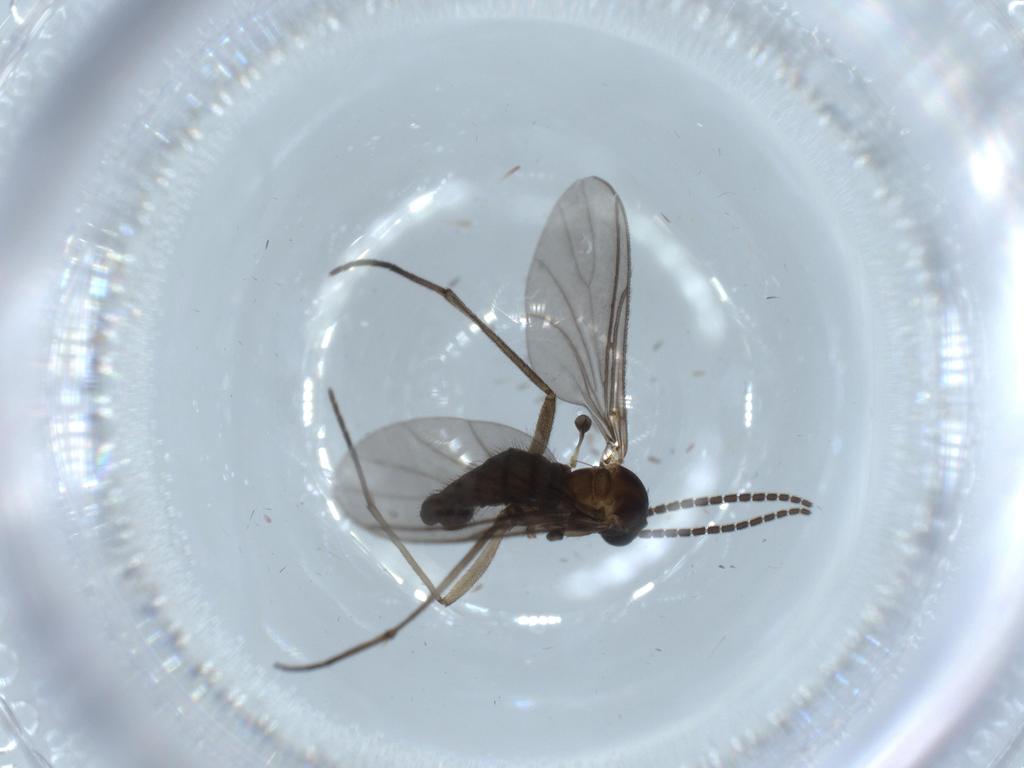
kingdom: Animalia
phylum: Arthropoda
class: Insecta
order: Diptera
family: Sciaridae
